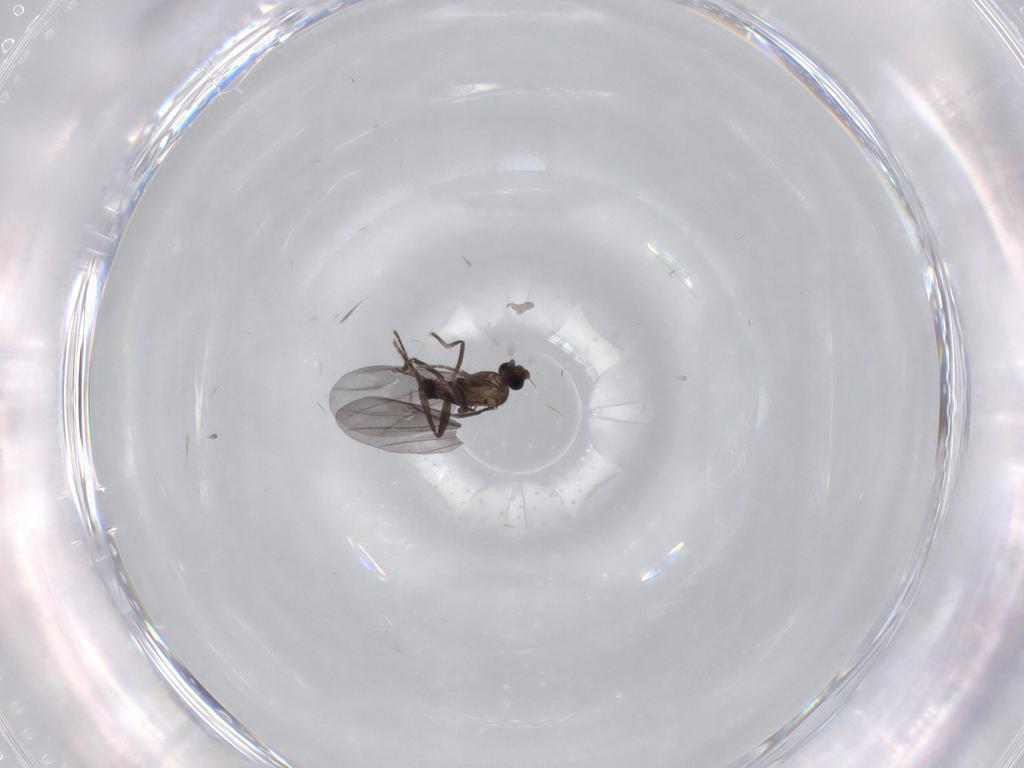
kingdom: Animalia
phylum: Arthropoda
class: Insecta
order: Diptera
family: Phoridae
